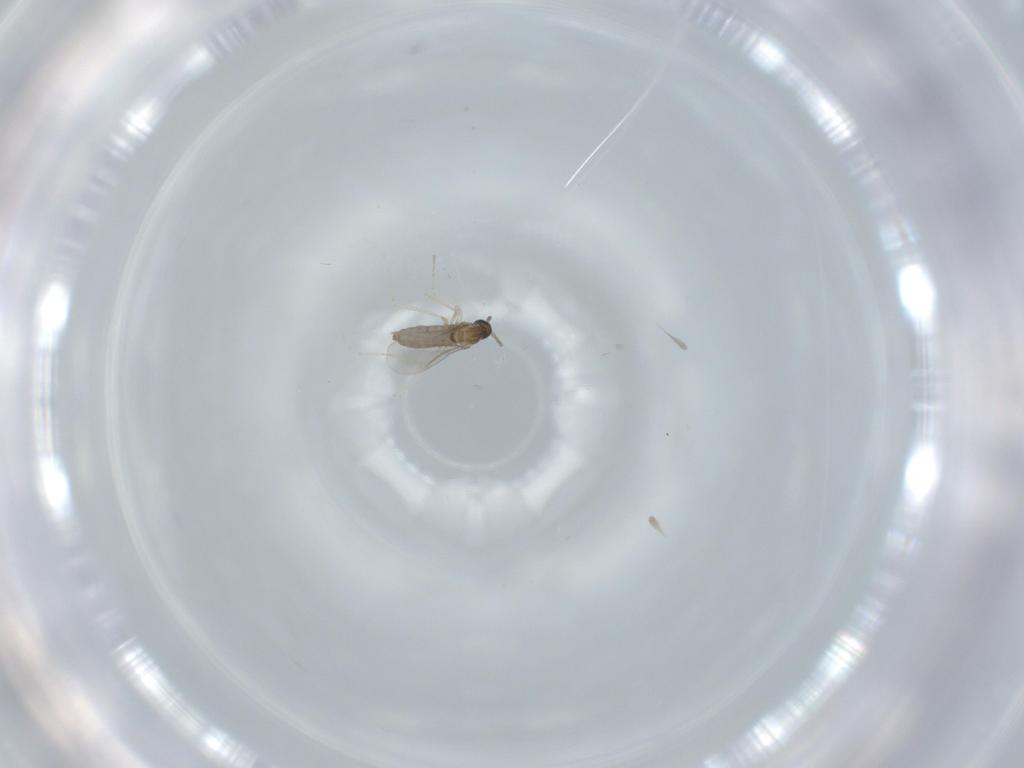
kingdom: Animalia
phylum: Arthropoda
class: Insecta
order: Diptera
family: Cecidomyiidae
